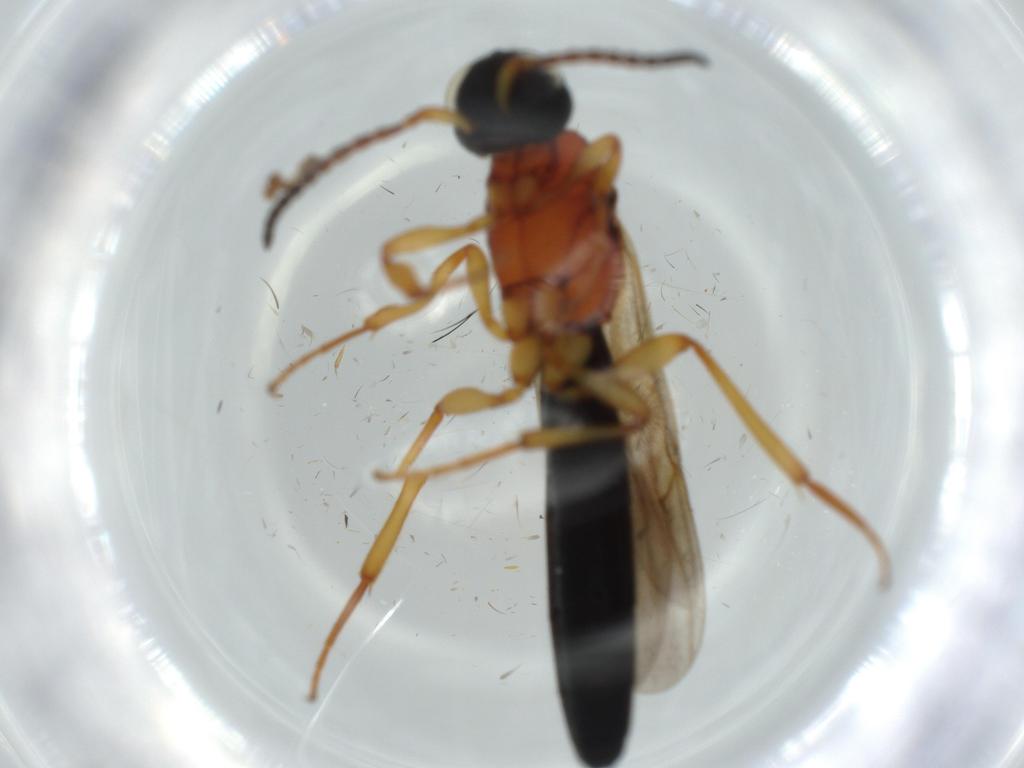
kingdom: Animalia
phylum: Arthropoda
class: Insecta
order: Hymenoptera
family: Scelionidae
